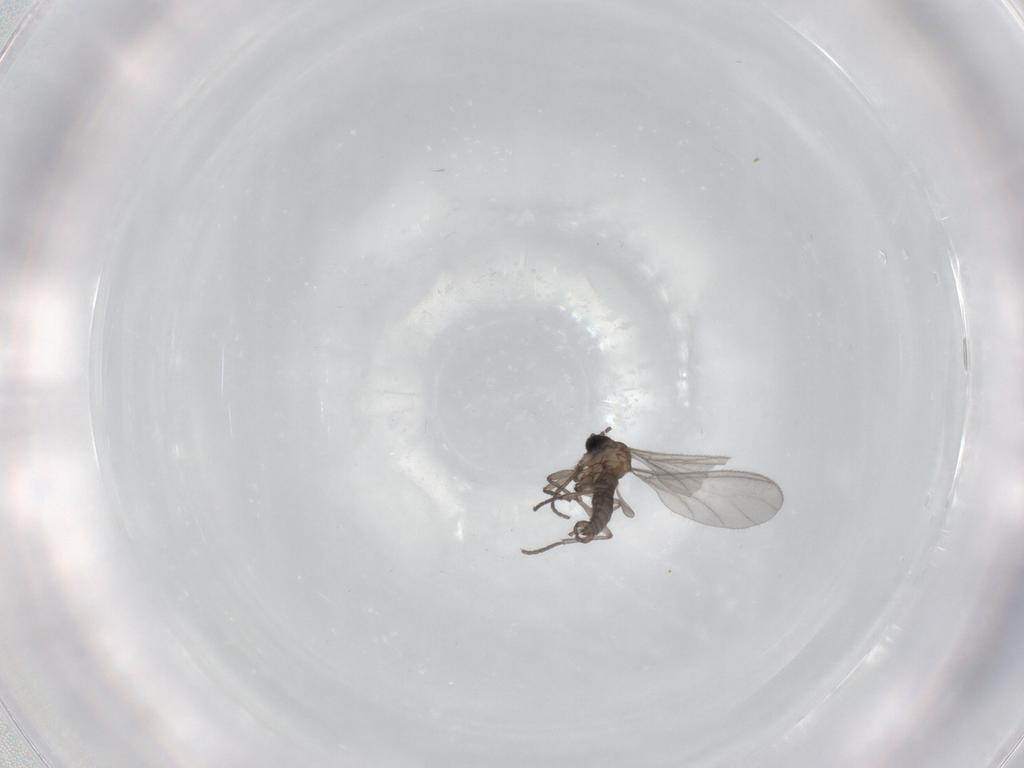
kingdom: Animalia
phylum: Arthropoda
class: Insecta
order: Diptera
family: Sciaridae
